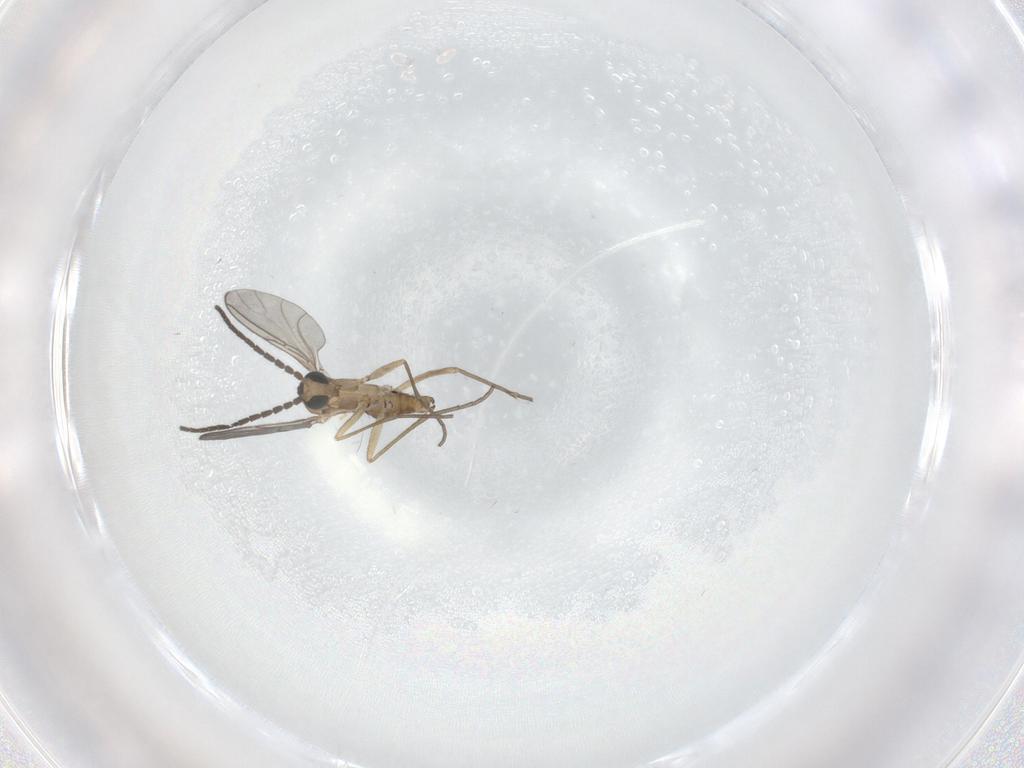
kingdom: Animalia
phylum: Arthropoda
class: Insecta
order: Diptera
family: Sciaridae
